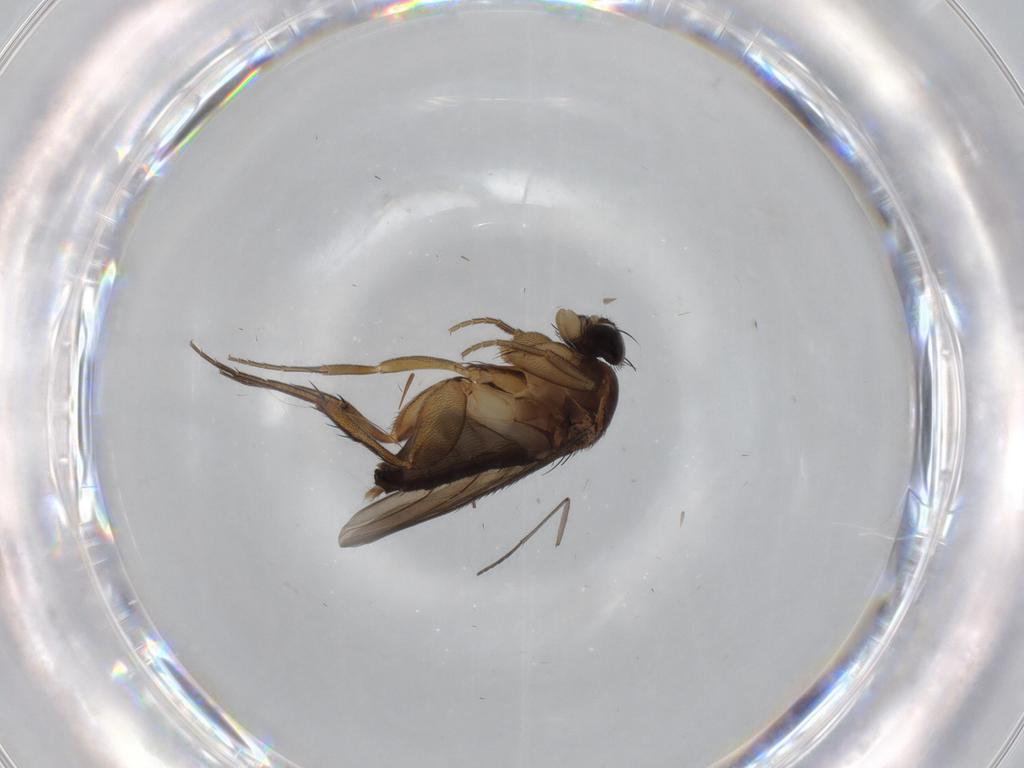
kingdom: Animalia
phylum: Arthropoda
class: Insecta
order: Diptera
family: Phoridae
